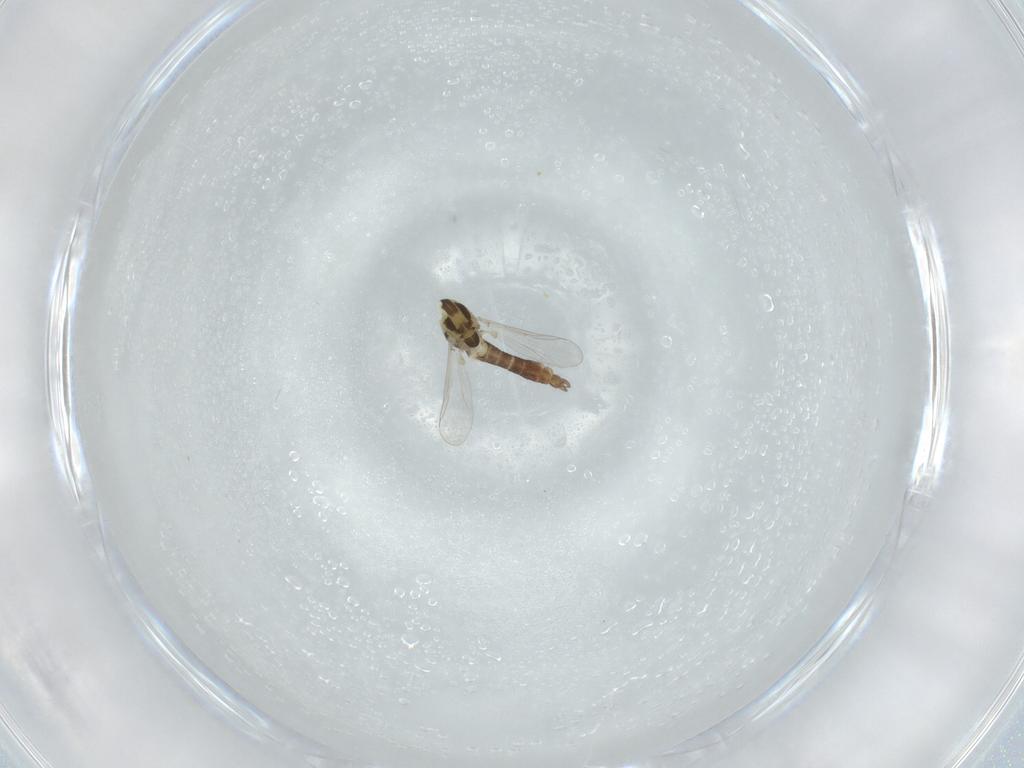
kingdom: Animalia
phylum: Arthropoda
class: Insecta
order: Diptera
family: Chironomidae
